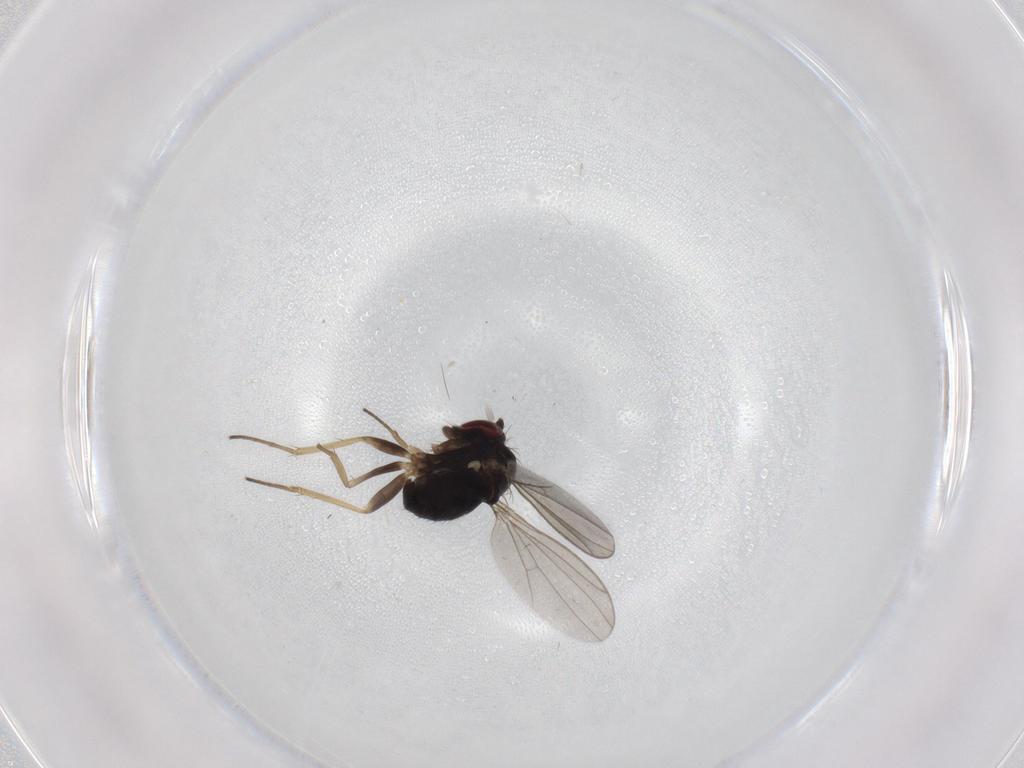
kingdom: Animalia
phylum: Arthropoda
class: Insecta
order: Diptera
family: Dolichopodidae
